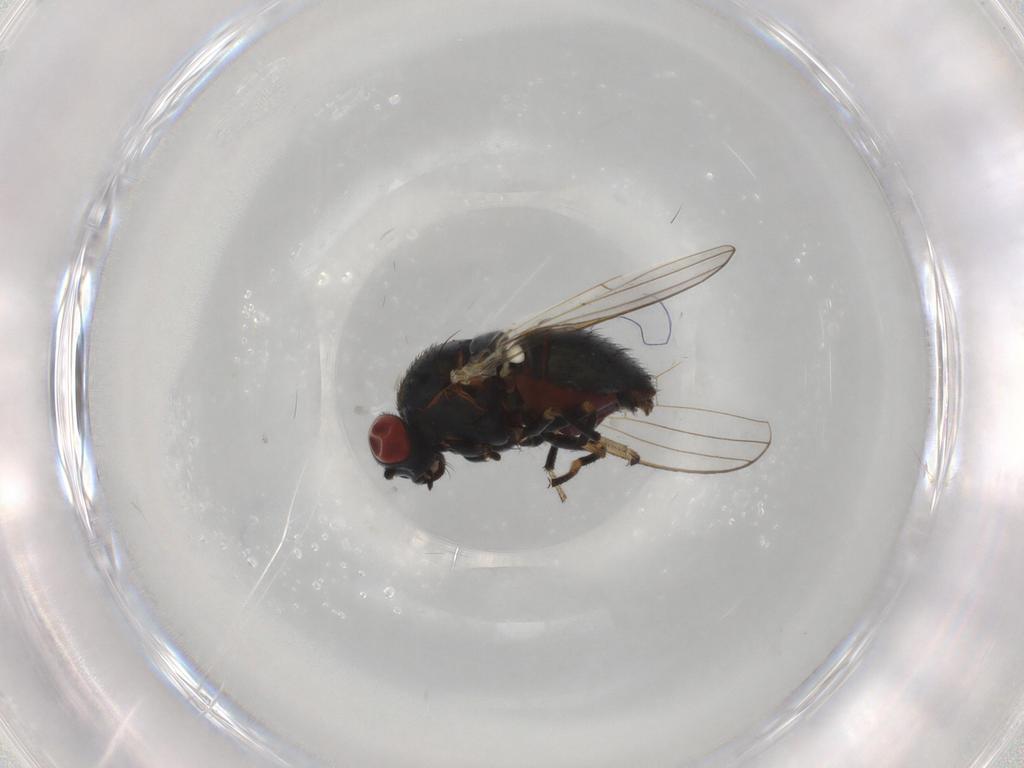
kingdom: Animalia
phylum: Arthropoda
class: Insecta
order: Diptera
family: Chamaemyiidae
